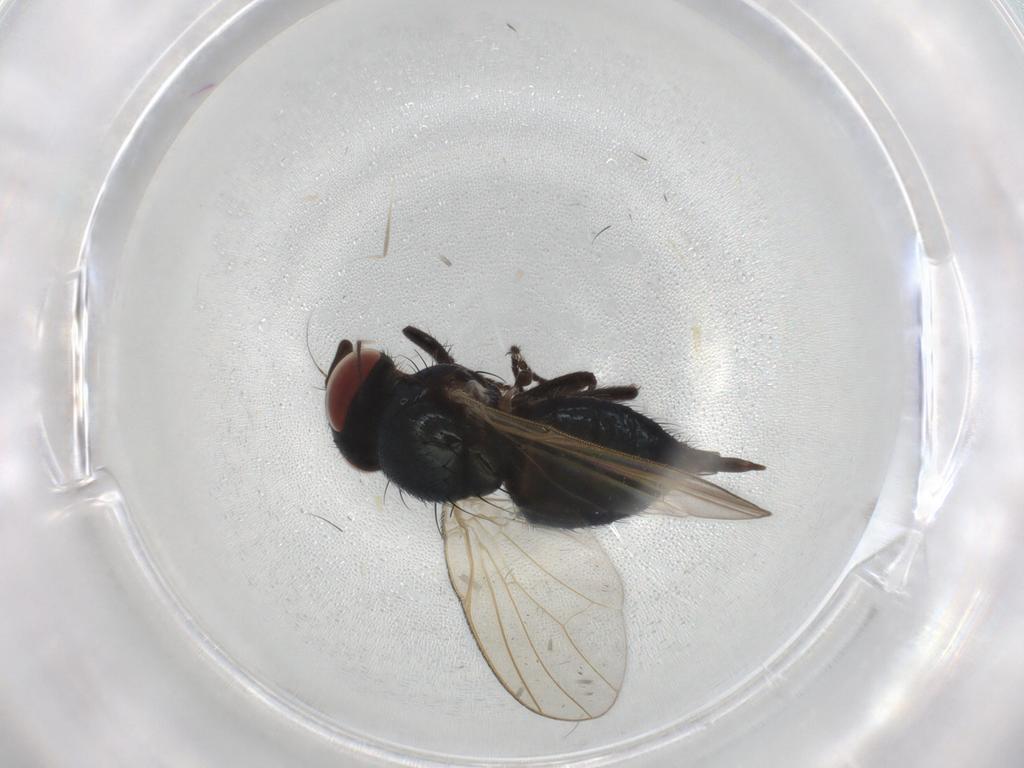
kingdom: Animalia
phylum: Arthropoda
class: Insecta
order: Diptera
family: Lonchaeidae
